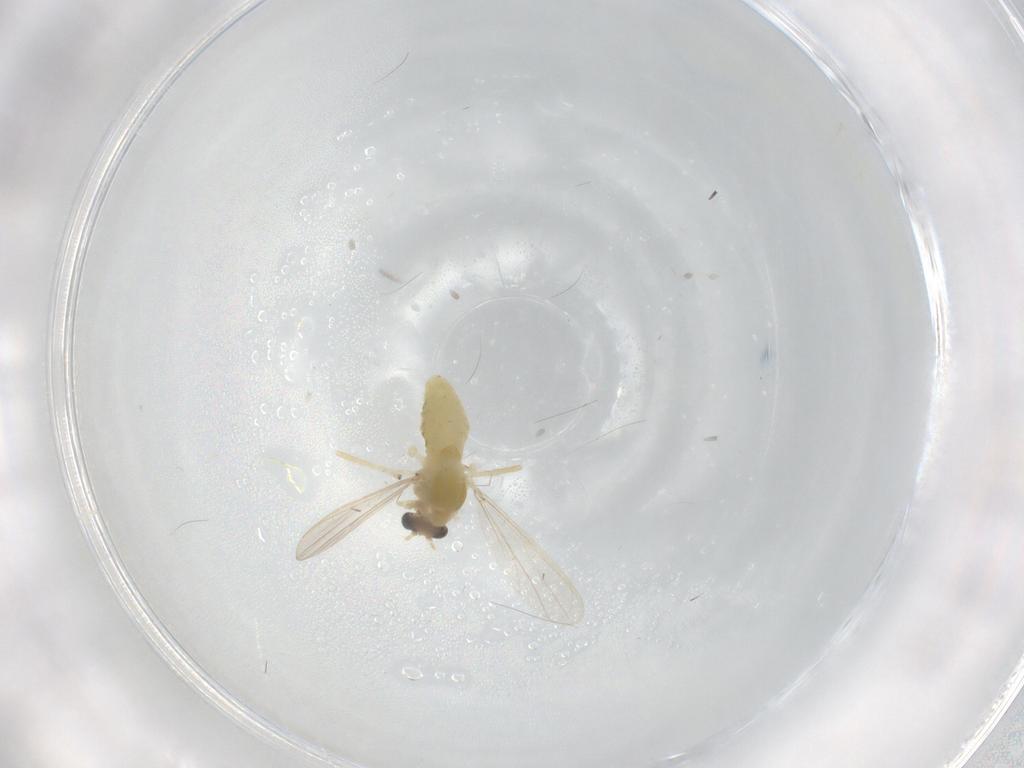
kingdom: Animalia
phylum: Arthropoda
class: Insecta
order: Diptera
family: Chironomidae
